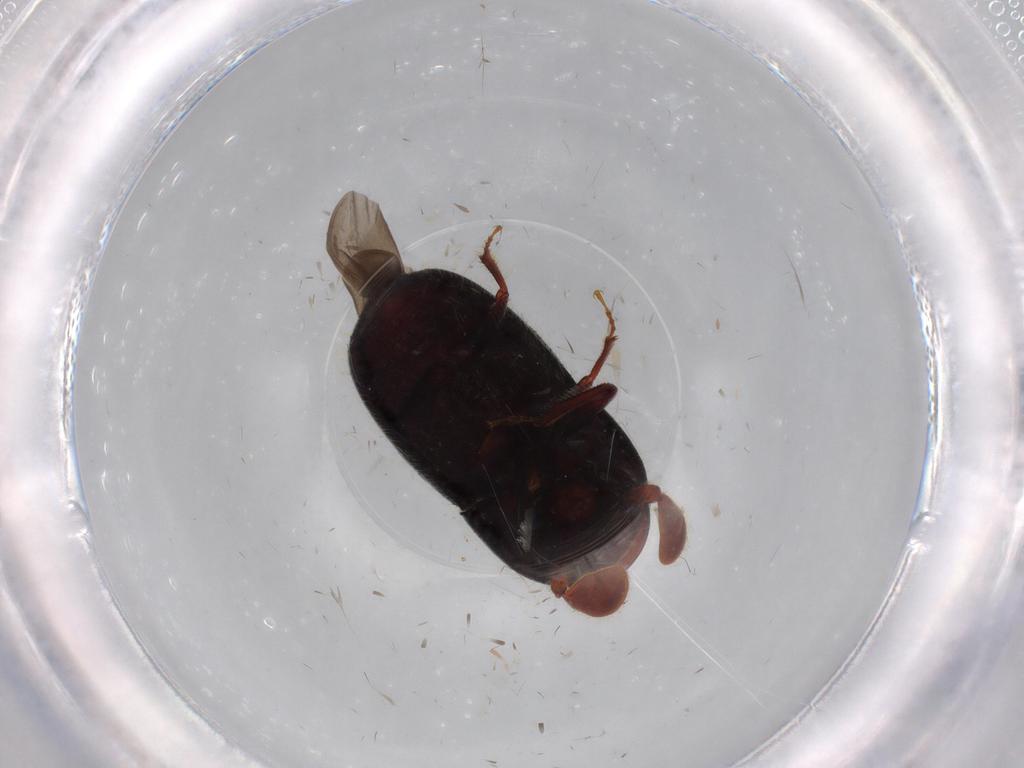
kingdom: Animalia
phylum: Arthropoda
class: Insecta
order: Coleoptera
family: Curculionidae
